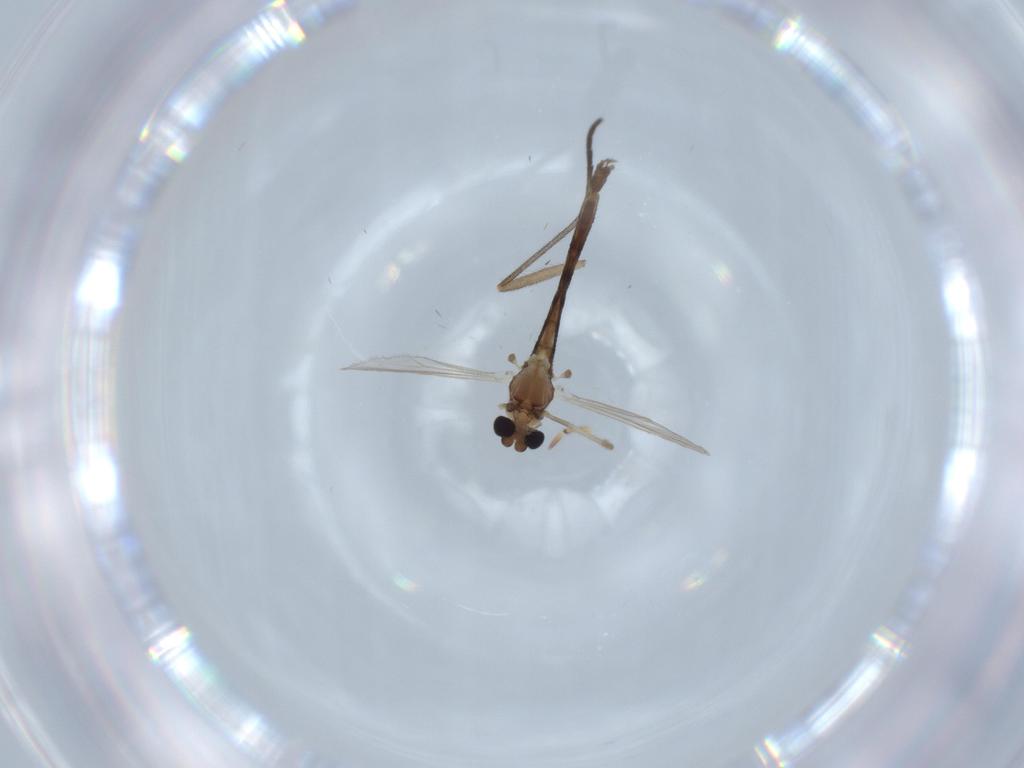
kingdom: Animalia
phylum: Arthropoda
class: Insecta
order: Diptera
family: Chironomidae
